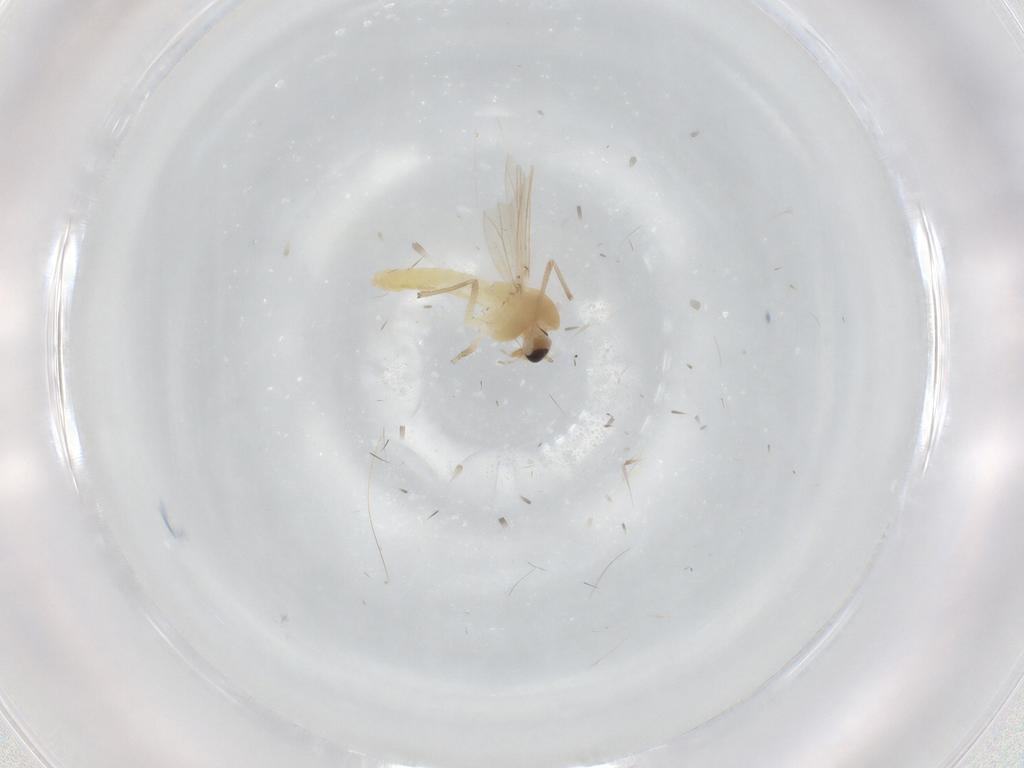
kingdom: Animalia
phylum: Arthropoda
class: Insecta
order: Diptera
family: Chironomidae
